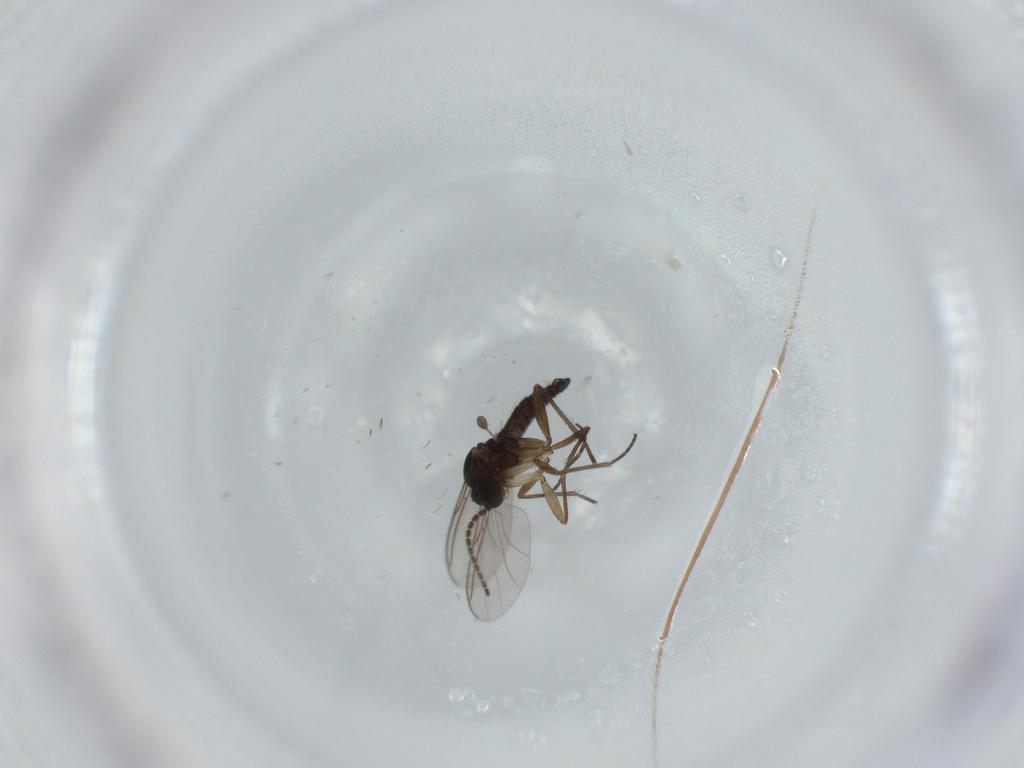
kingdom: Animalia
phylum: Arthropoda
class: Insecta
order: Diptera
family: Sciaridae
